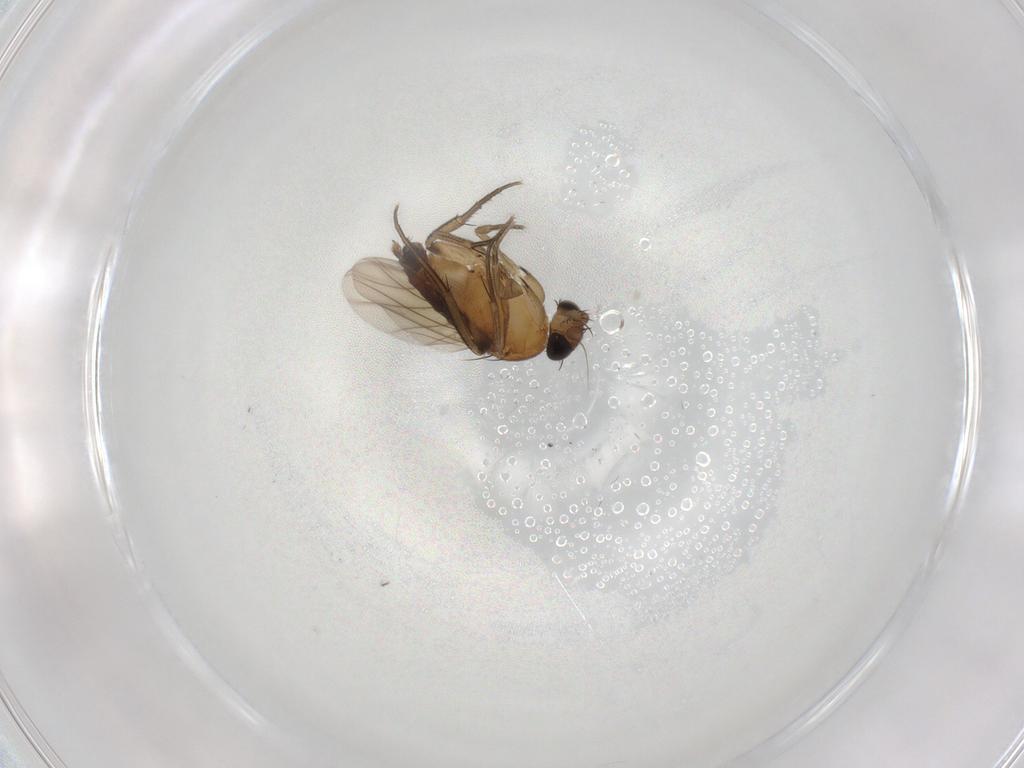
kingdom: Animalia
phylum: Arthropoda
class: Insecta
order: Diptera
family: Phoridae
